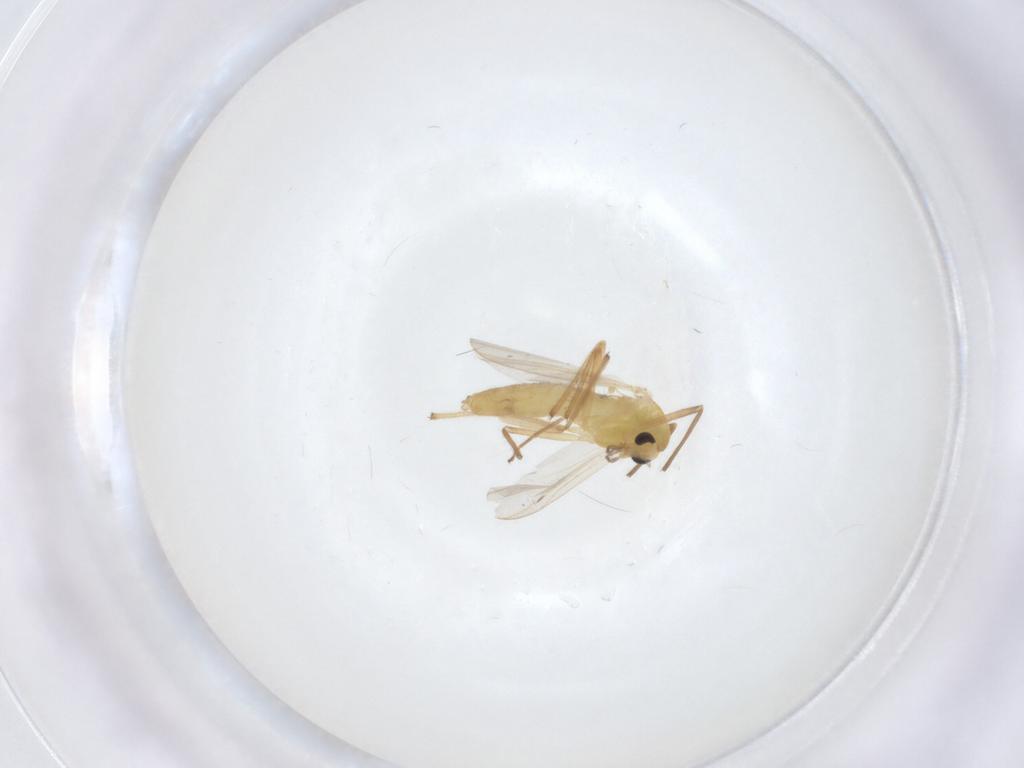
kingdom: Animalia
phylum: Arthropoda
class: Insecta
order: Diptera
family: Chironomidae
